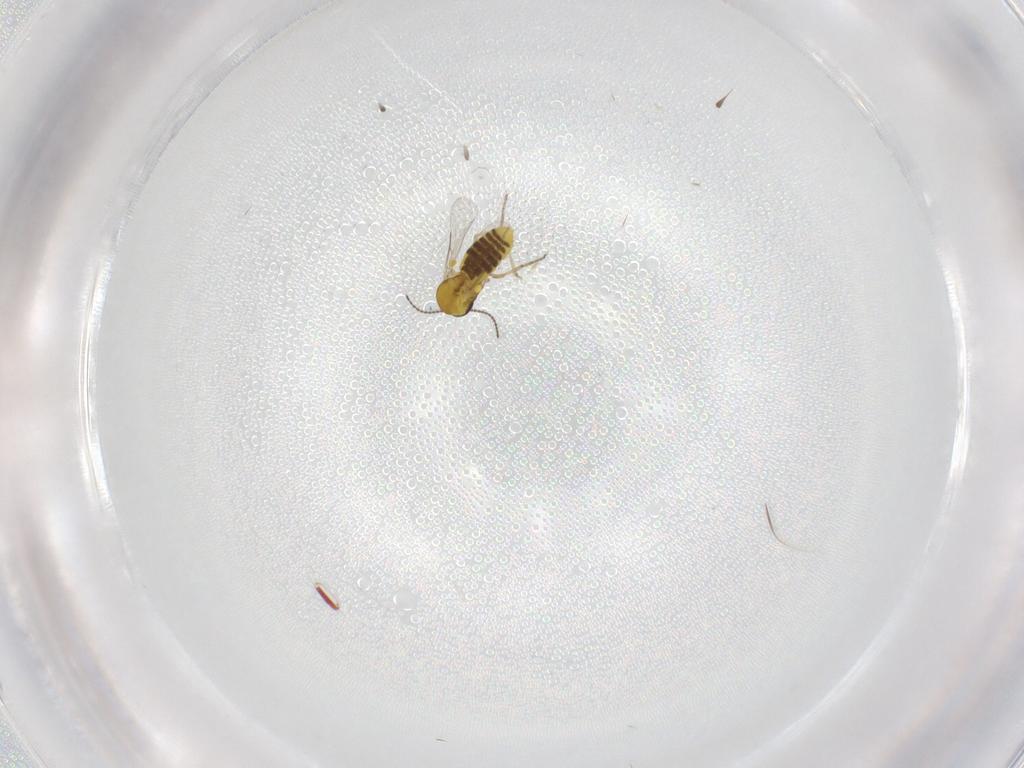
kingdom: Animalia
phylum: Arthropoda
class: Insecta
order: Diptera
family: Ceratopogonidae
